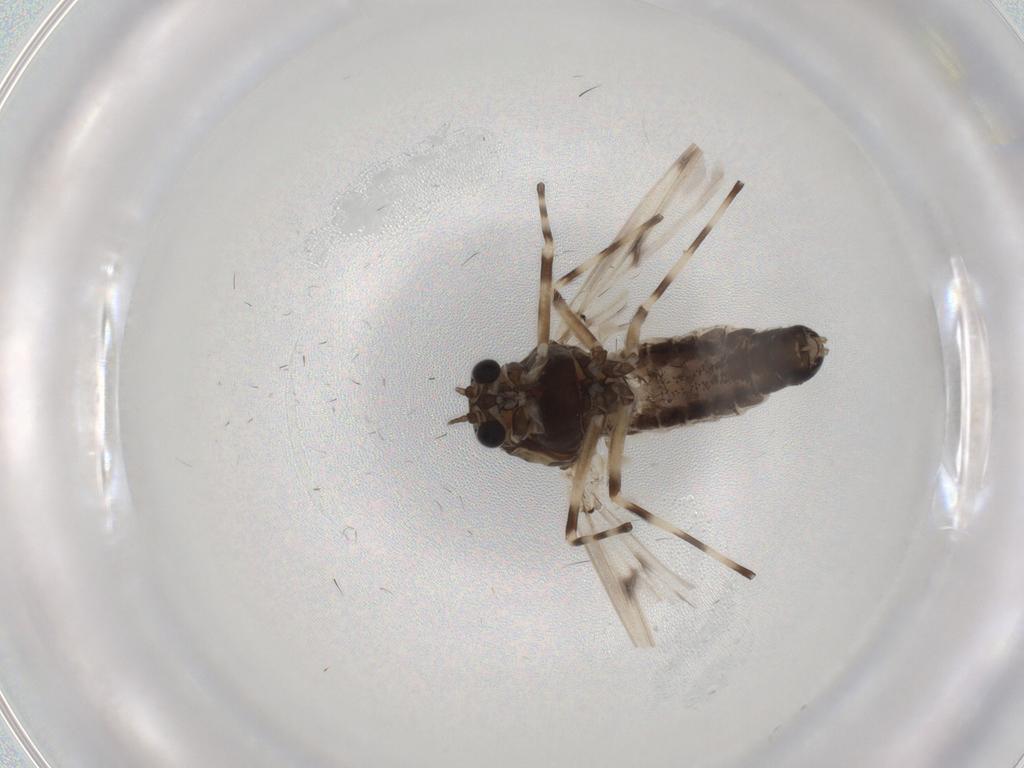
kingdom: Animalia
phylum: Arthropoda
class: Insecta
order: Diptera
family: Chironomidae
